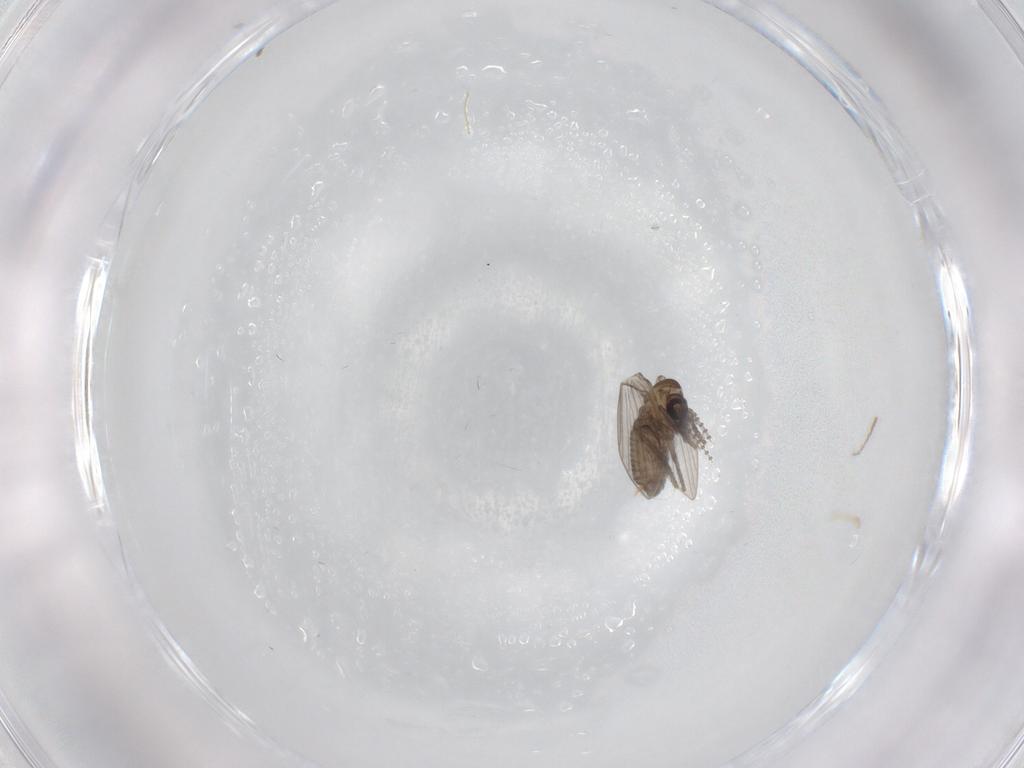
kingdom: Animalia
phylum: Arthropoda
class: Insecta
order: Diptera
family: Psychodidae
